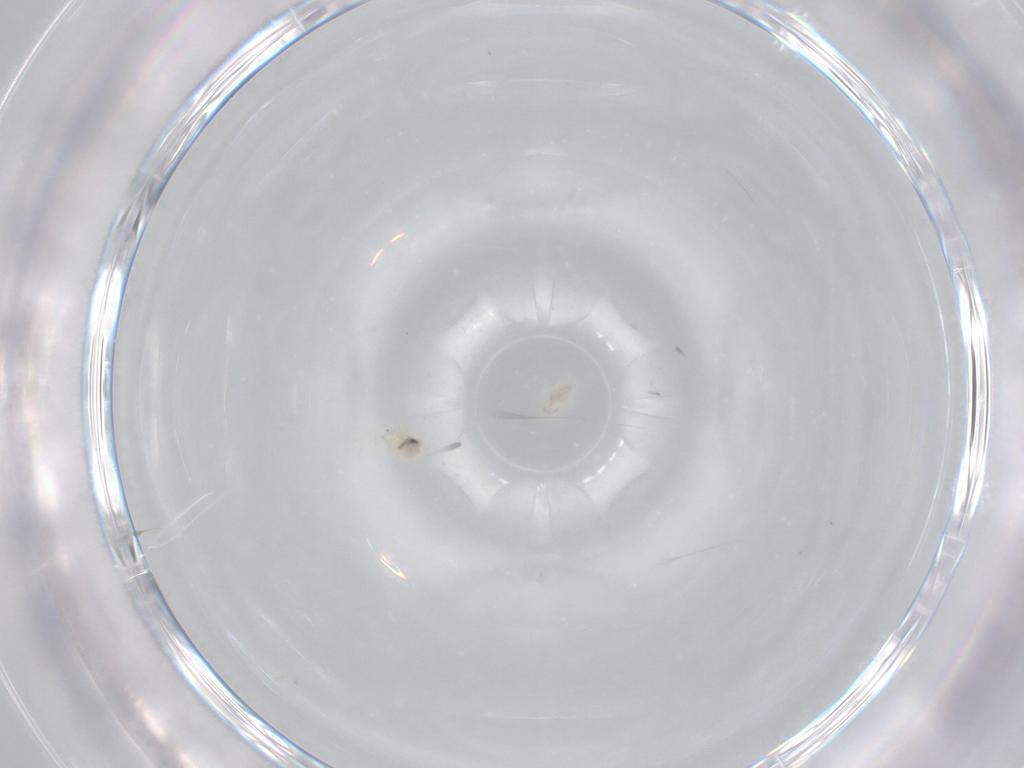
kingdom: Animalia
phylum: Arthropoda
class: Insecta
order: Diptera
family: Cecidomyiidae
